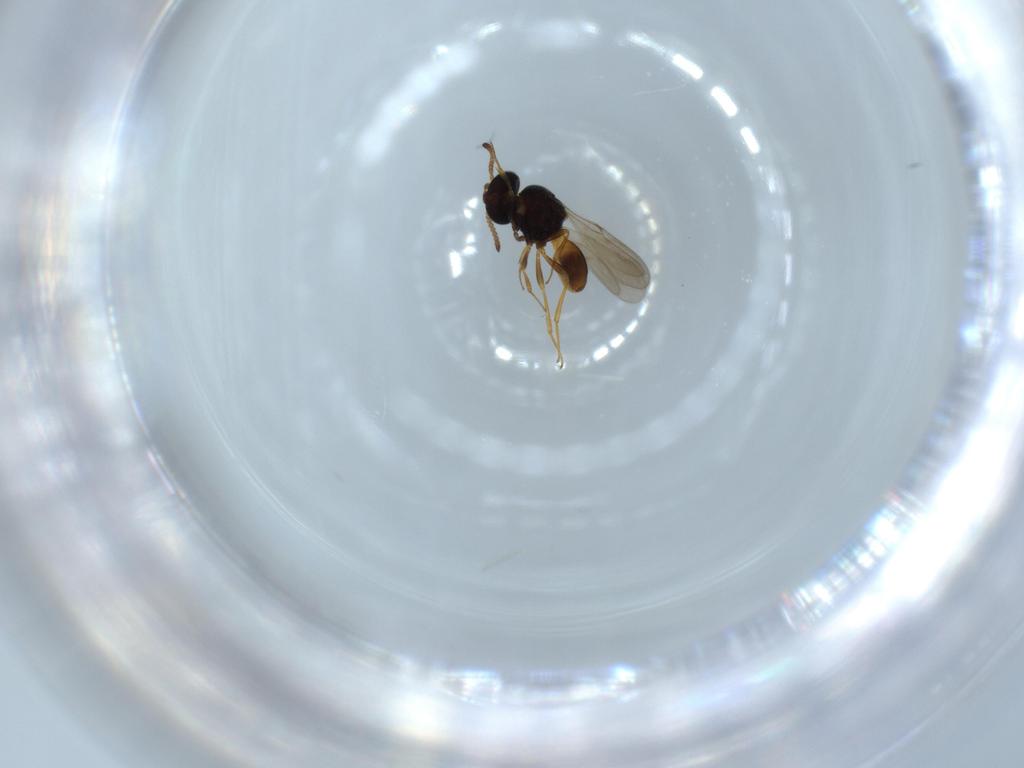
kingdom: Animalia
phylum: Arthropoda
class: Insecta
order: Hymenoptera
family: Scelionidae
